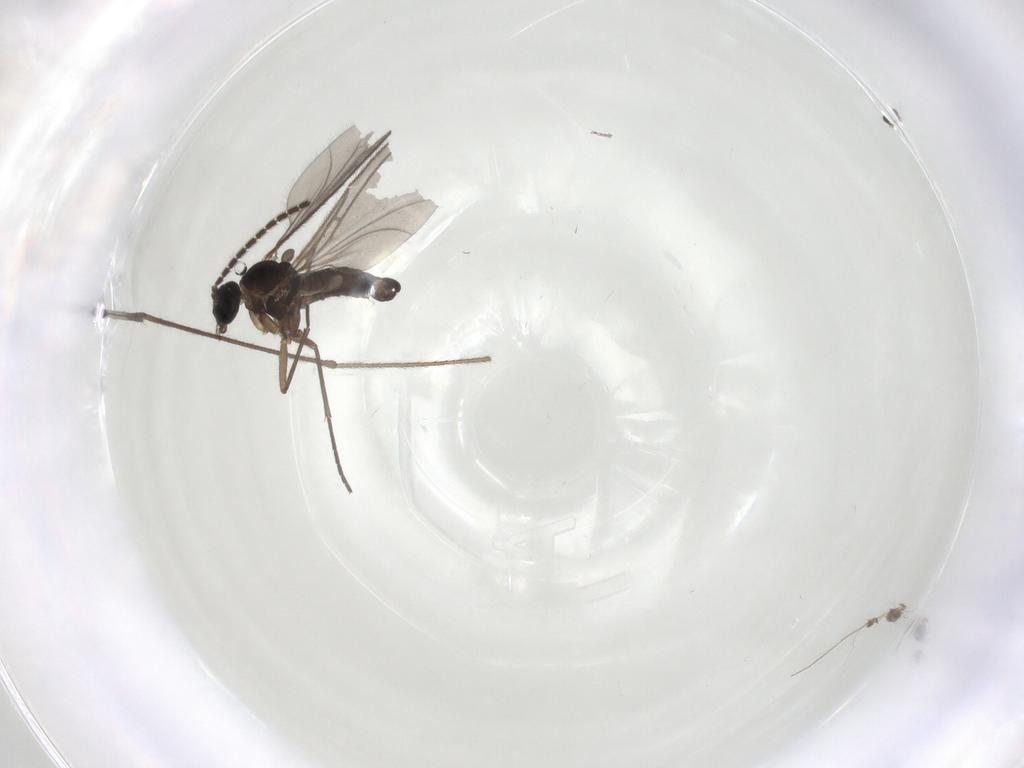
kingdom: Animalia
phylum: Arthropoda
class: Insecta
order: Diptera
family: Limoniidae
